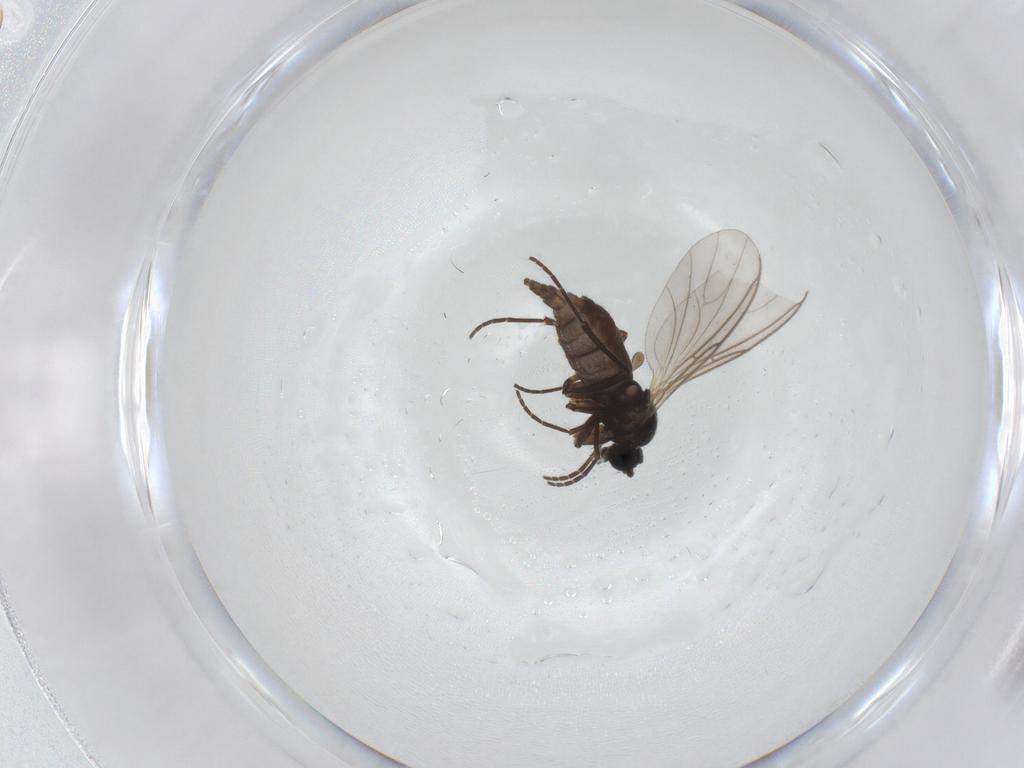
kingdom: Animalia
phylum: Arthropoda
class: Insecta
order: Diptera
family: Sciaridae
